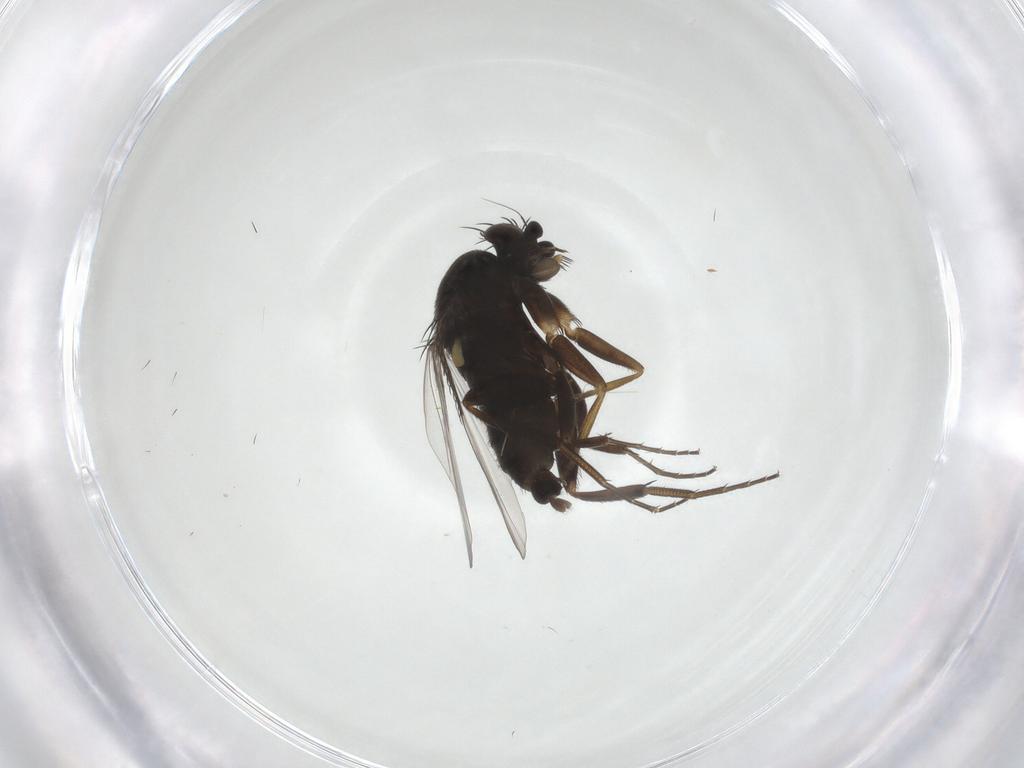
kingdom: Animalia
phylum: Arthropoda
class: Insecta
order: Diptera
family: Phoridae
